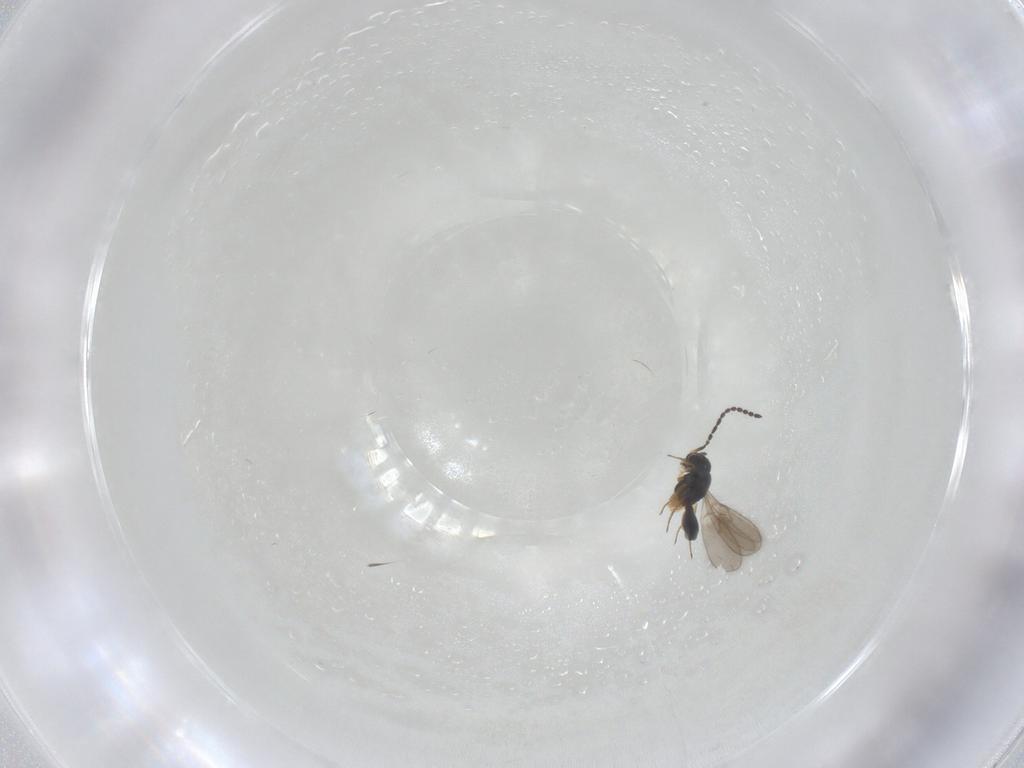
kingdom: Animalia
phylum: Arthropoda
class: Insecta
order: Hymenoptera
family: Scelionidae
